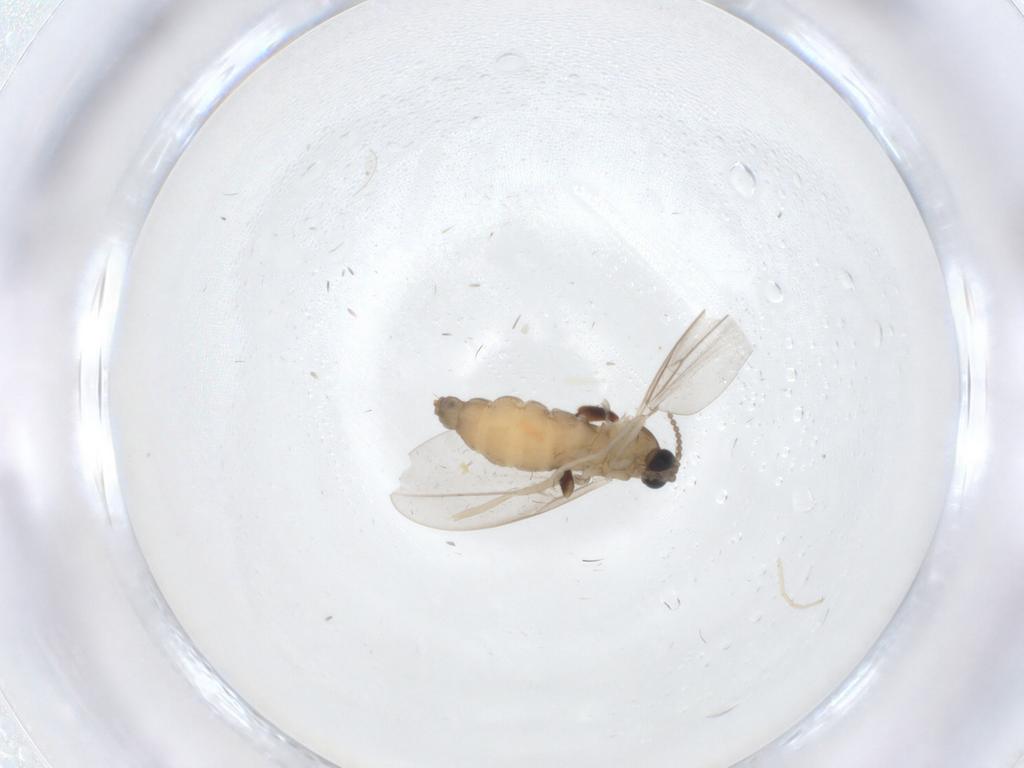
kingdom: Animalia
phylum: Arthropoda
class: Insecta
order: Diptera
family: Cecidomyiidae
